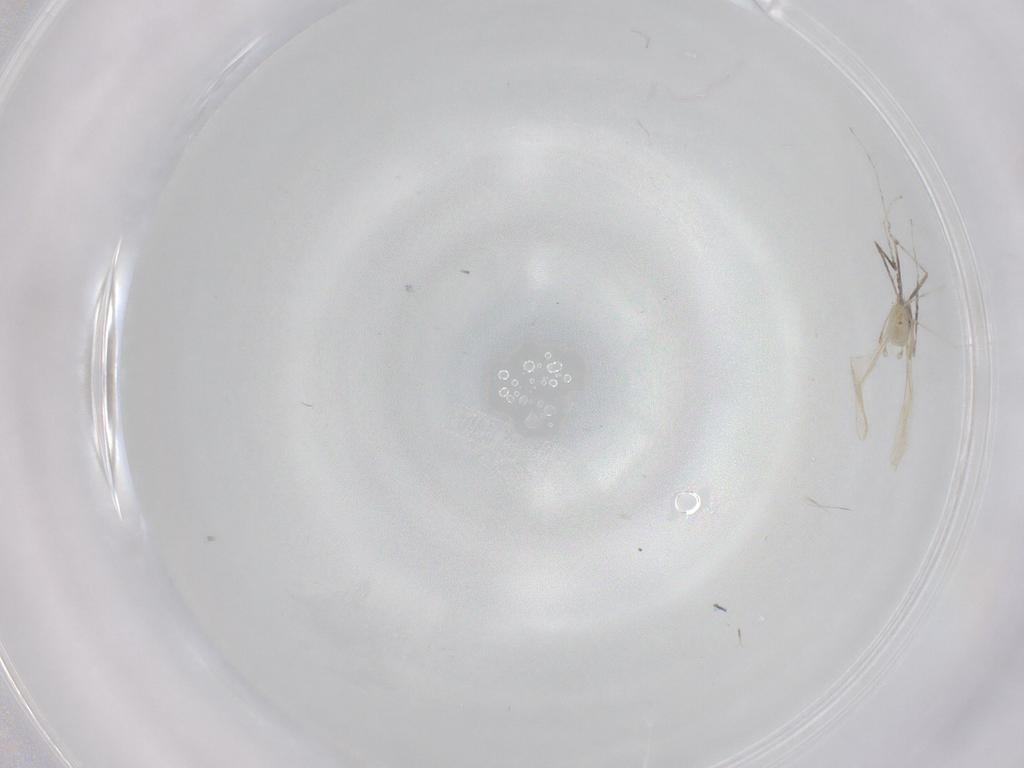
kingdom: Animalia
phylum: Arthropoda
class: Insecta
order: Diptera
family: Cecidomyiidae
